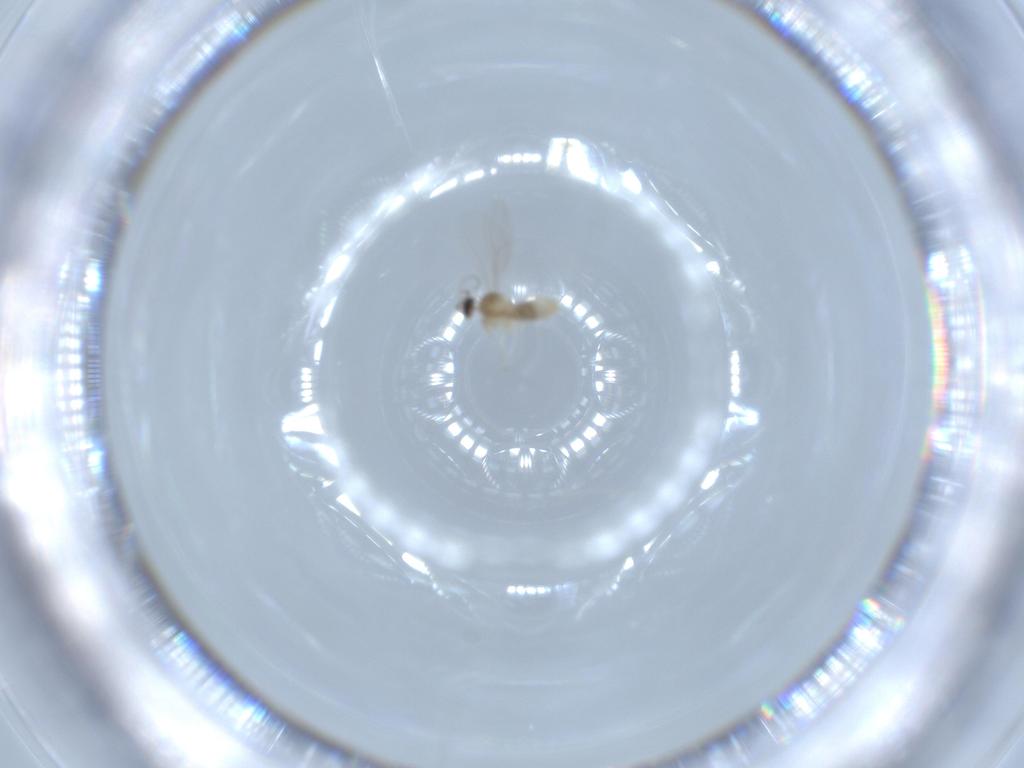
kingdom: Animalia
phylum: Arthropoda
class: Insecta
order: Diptera
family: Cecidomyiidae
